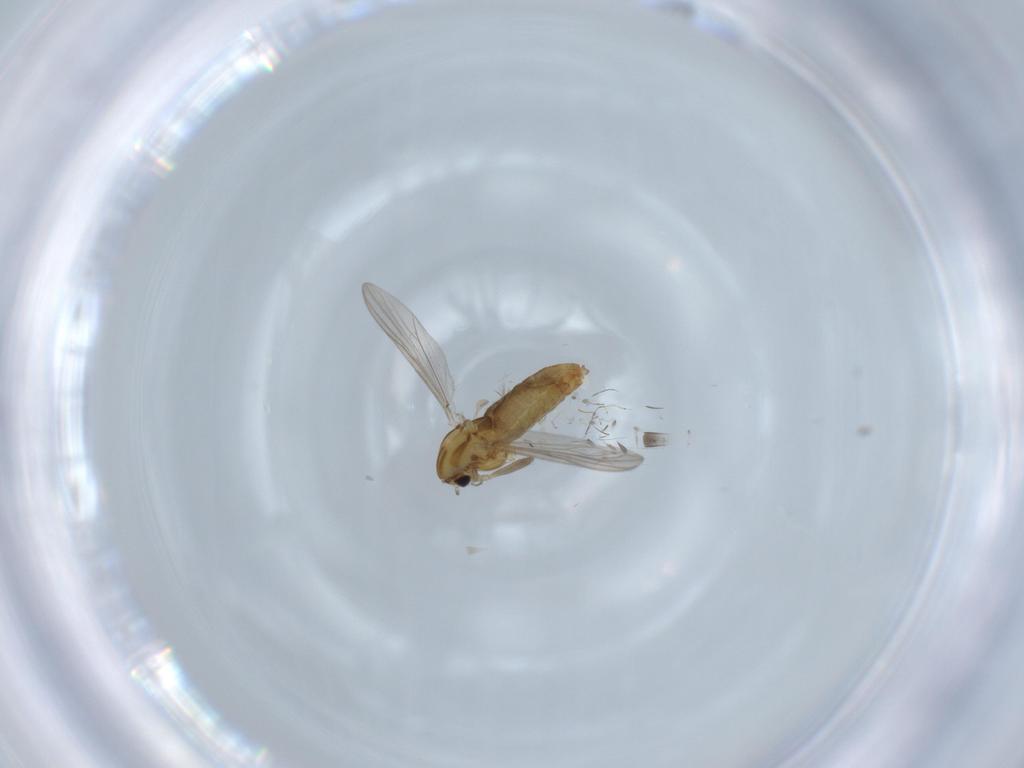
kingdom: Animalia
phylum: Arthropoda
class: Insecta
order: Diptera
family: Chironomidae
